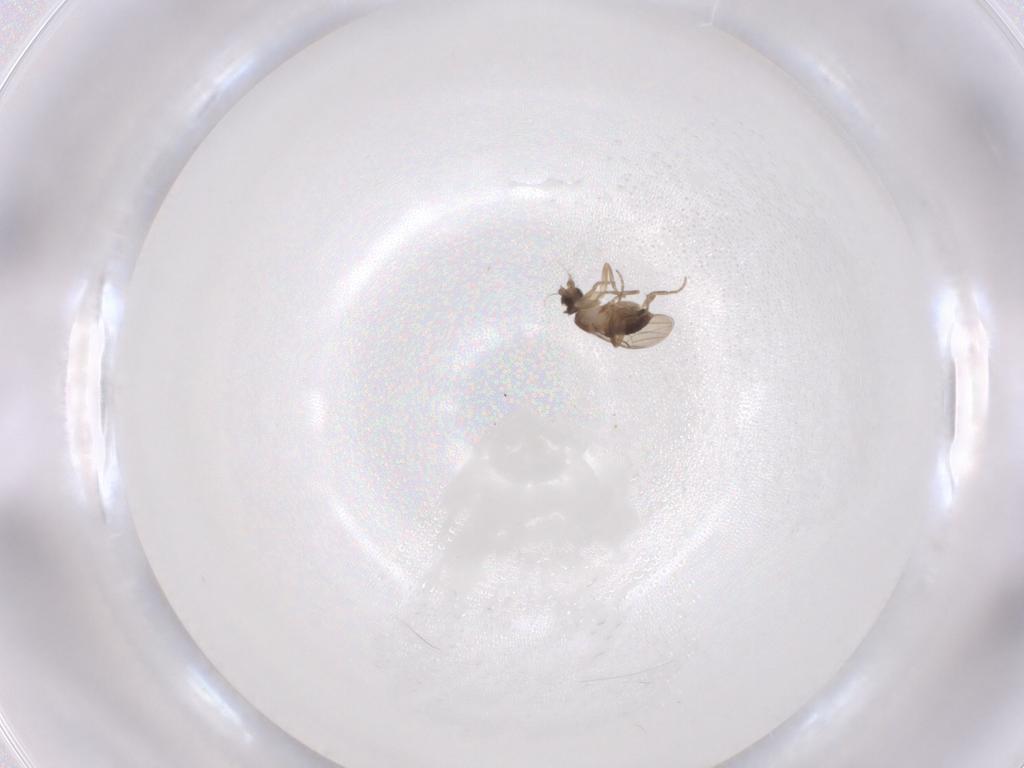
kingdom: Animalia
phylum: Arthropoda
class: Insecta
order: Diptera
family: Phoridae
